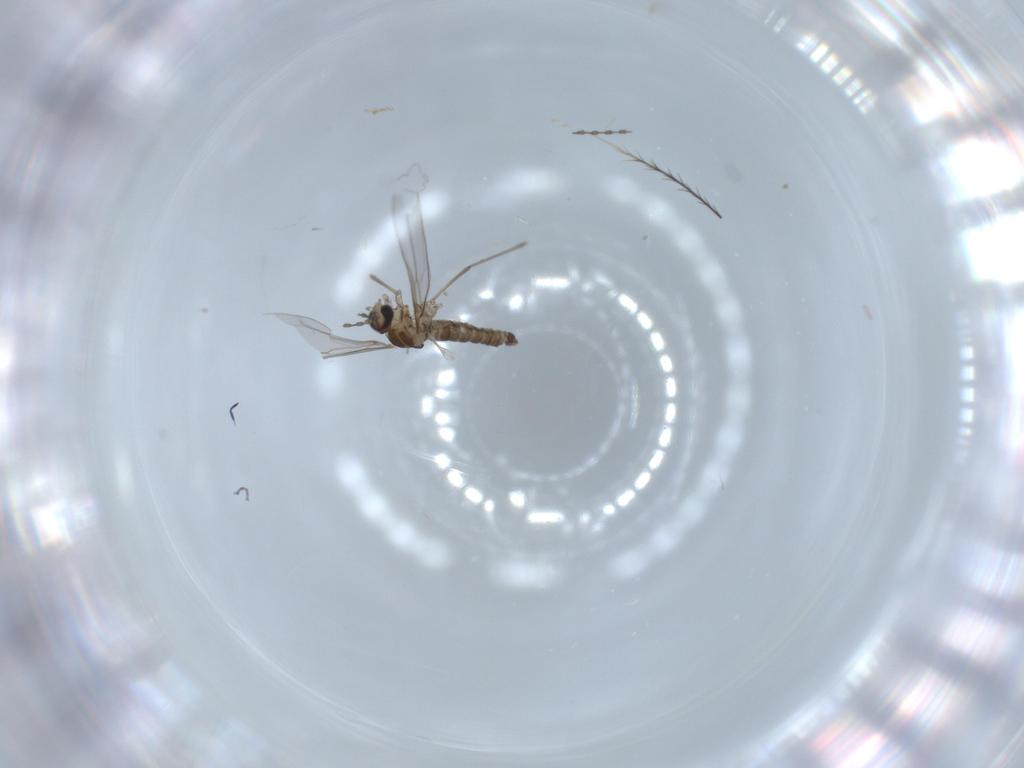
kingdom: Animalia
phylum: Arthropoda
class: Insecta
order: Diptera
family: Cecidomyiidae
